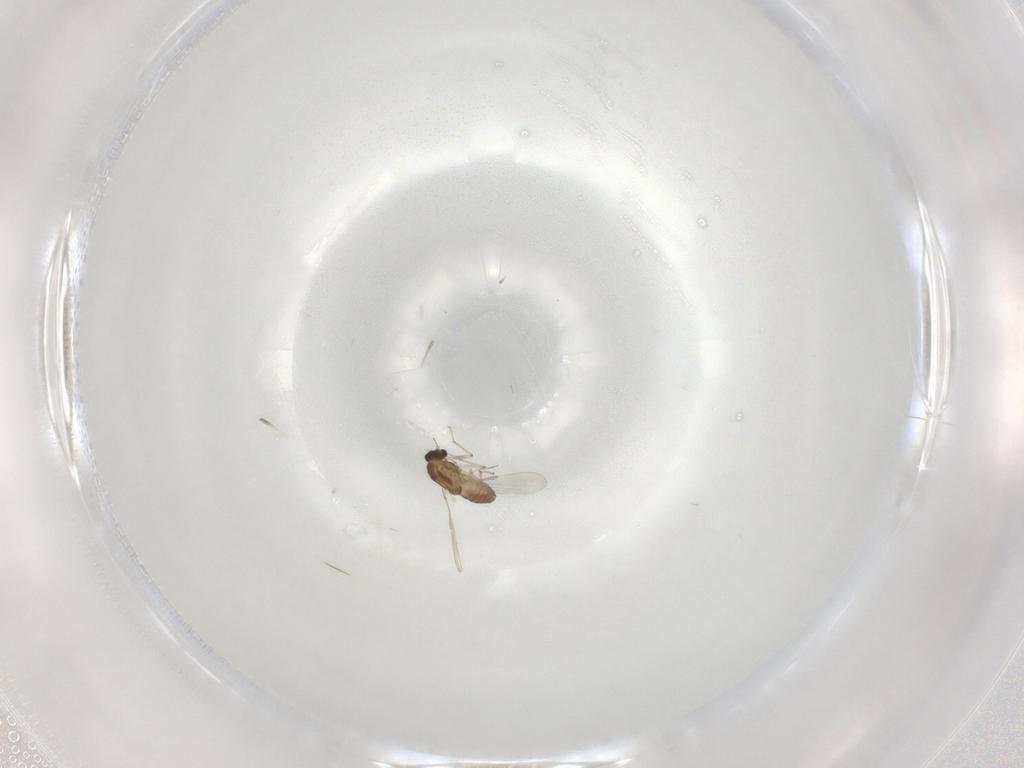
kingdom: Animalia
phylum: Arthropoda
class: Insecta
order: Diptera
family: Chironomidae
